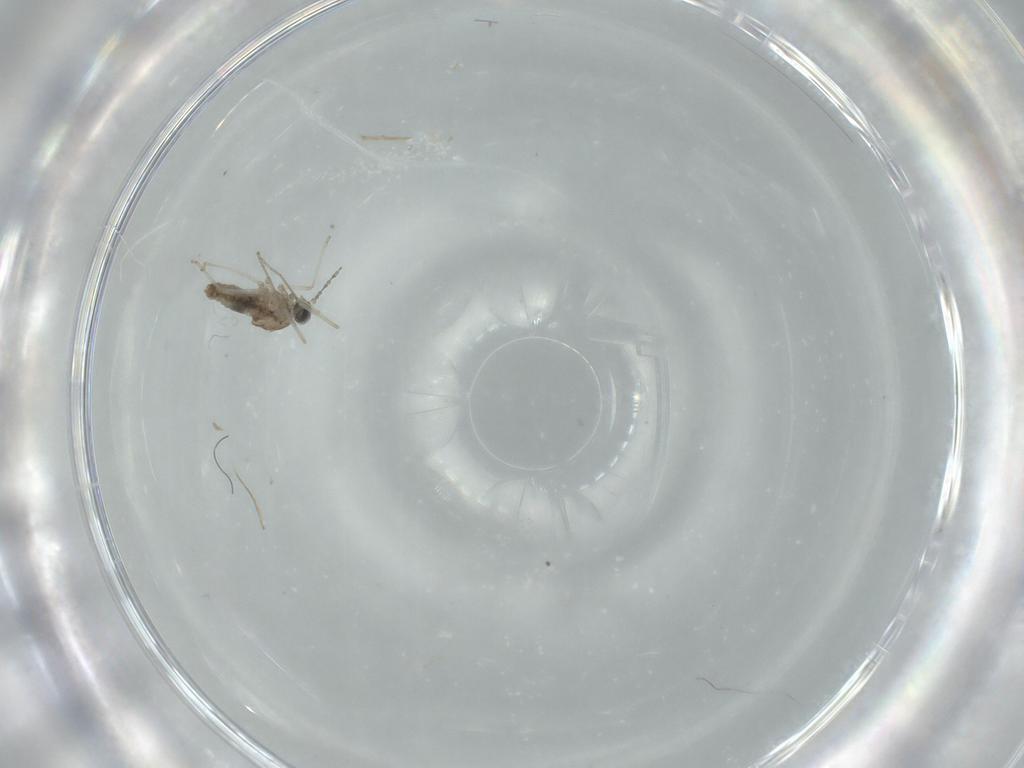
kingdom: Animalia
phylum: Arthropoda
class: Insecta
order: Diptera
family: Cecidomyiidae
